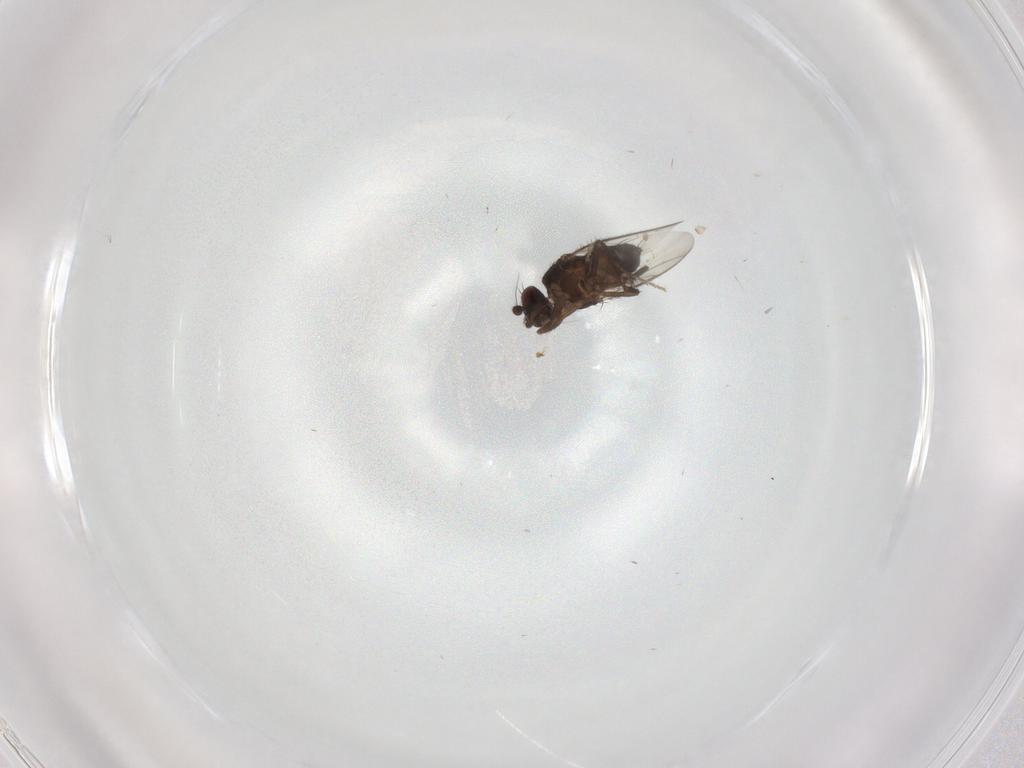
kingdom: Animalia
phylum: Arthropoda
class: Insecta
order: Diptera
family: Sphaeroceridae
